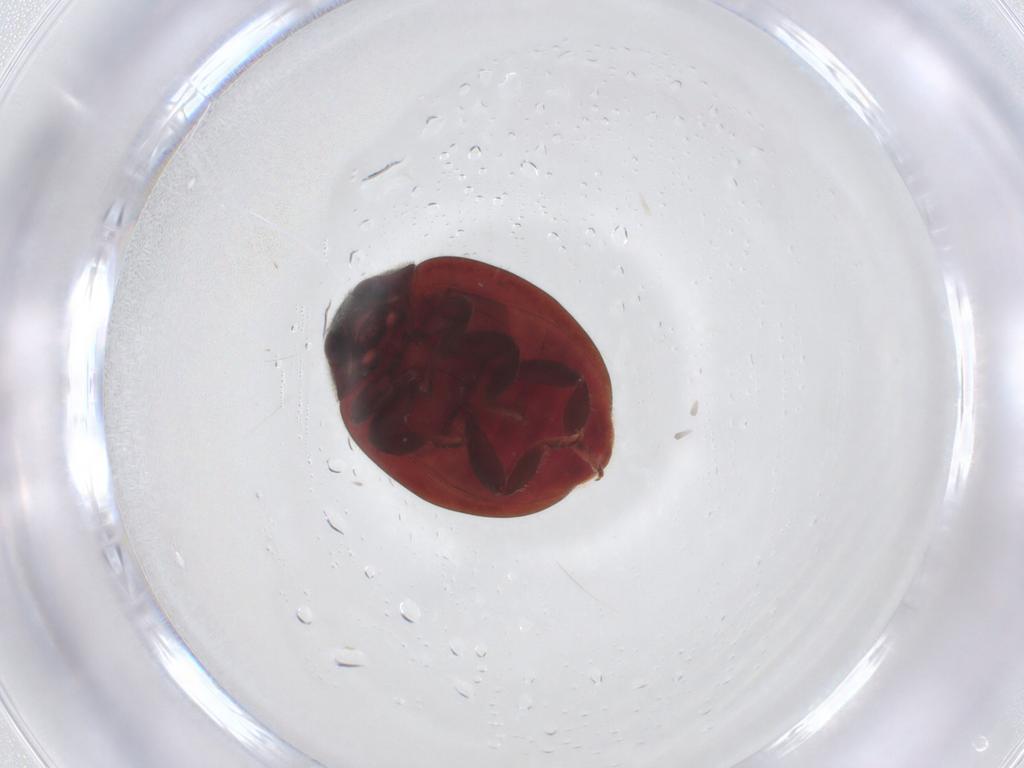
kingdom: Animalia
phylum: Arthropoda
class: Insecta
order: Coleoptera
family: Coccinellidae
